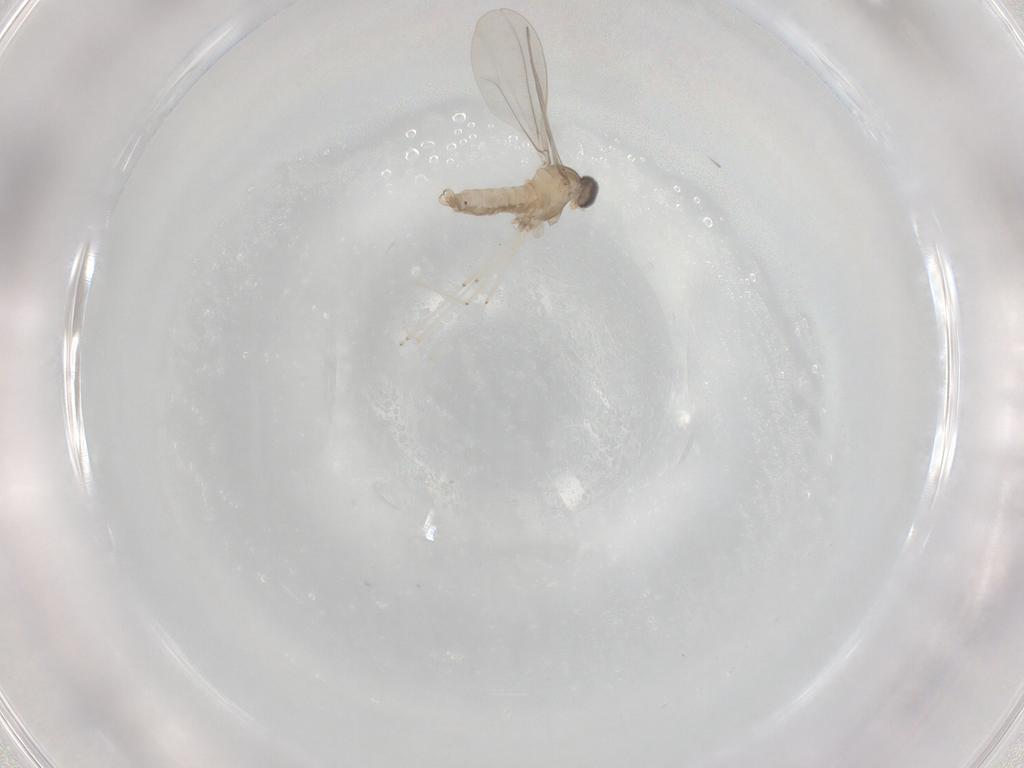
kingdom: Animalia
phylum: Arthropoda
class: Insecta
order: Diptera
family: Cecidomyiidae
